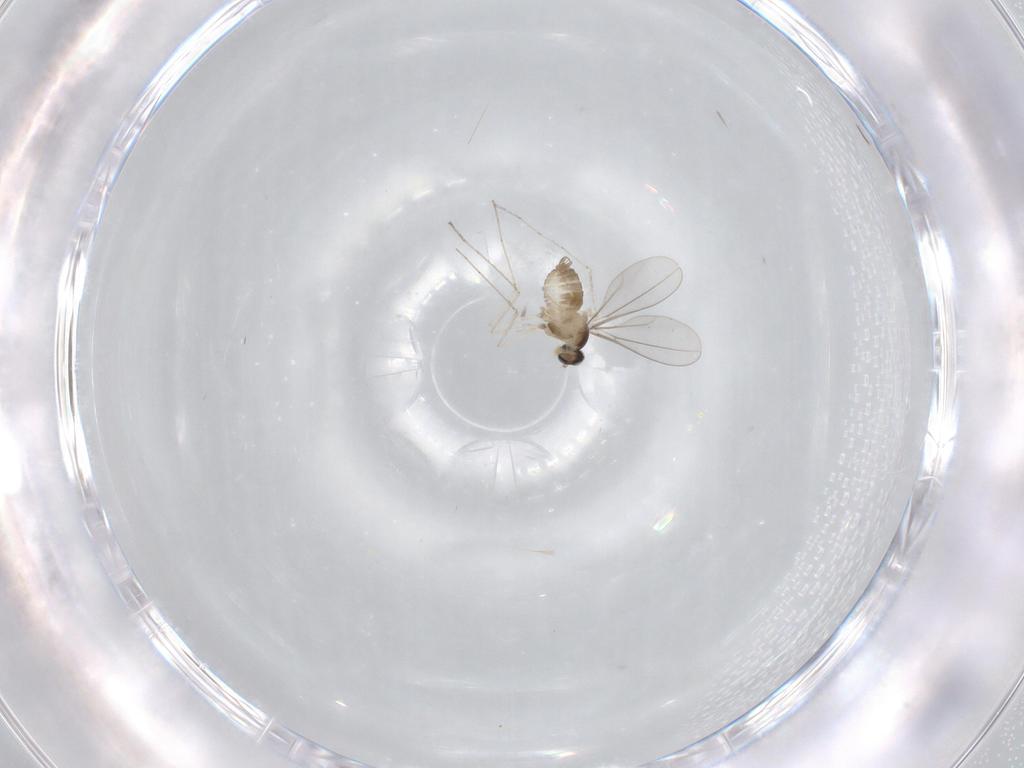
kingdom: Animalia
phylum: Arthropoda
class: Insecta
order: Diptera
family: Cecidomyiidae
